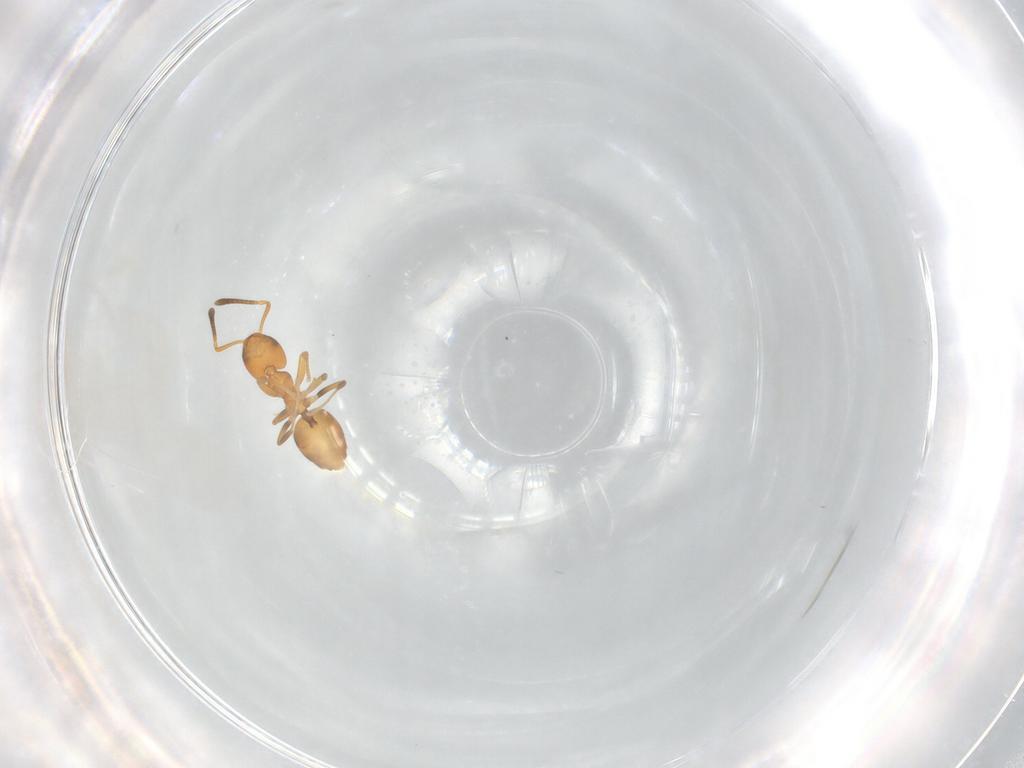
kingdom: Animalia
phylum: Arthropoda
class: Insecta
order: Hymenoptera
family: Formicidae
